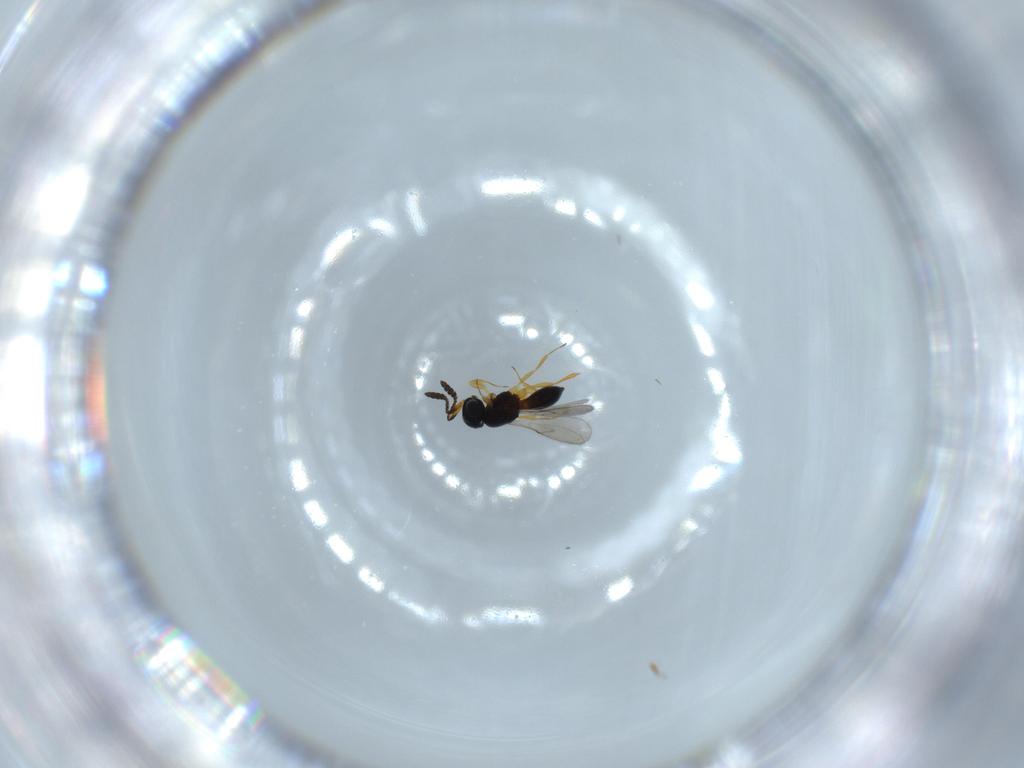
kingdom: Animalia
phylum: Arthropoda
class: Insecta
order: Hymenoptera
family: Scelionidae
